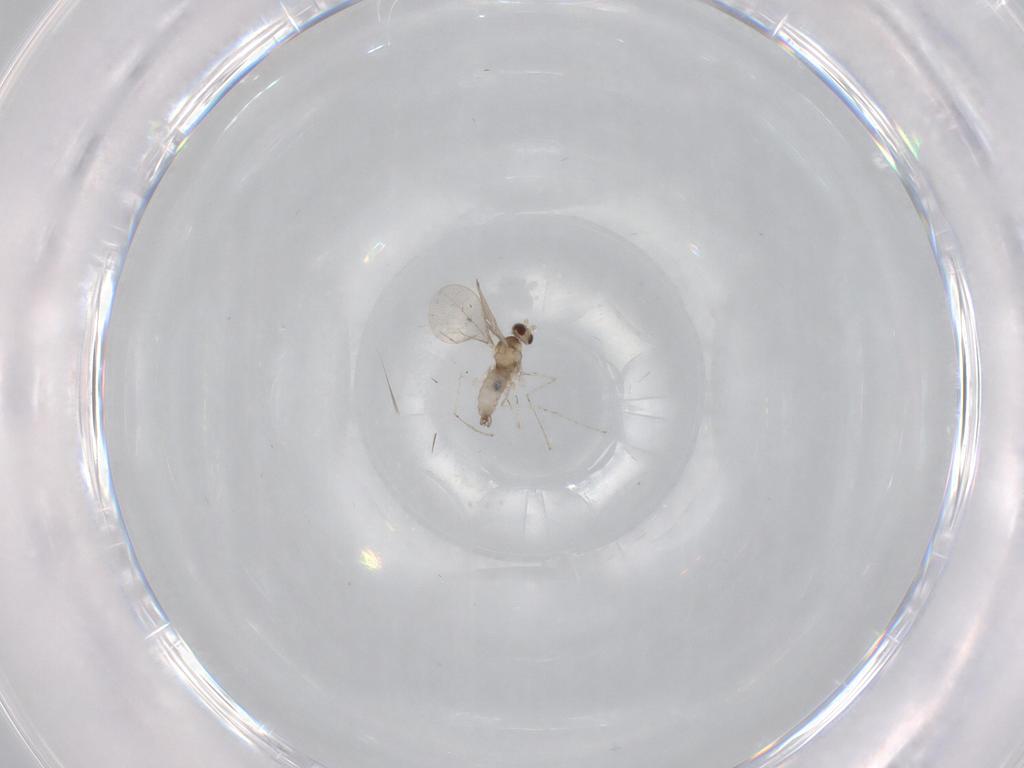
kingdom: Animalia
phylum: Arthropoda
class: Insecta
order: Diptera
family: Cecidomyiidae
